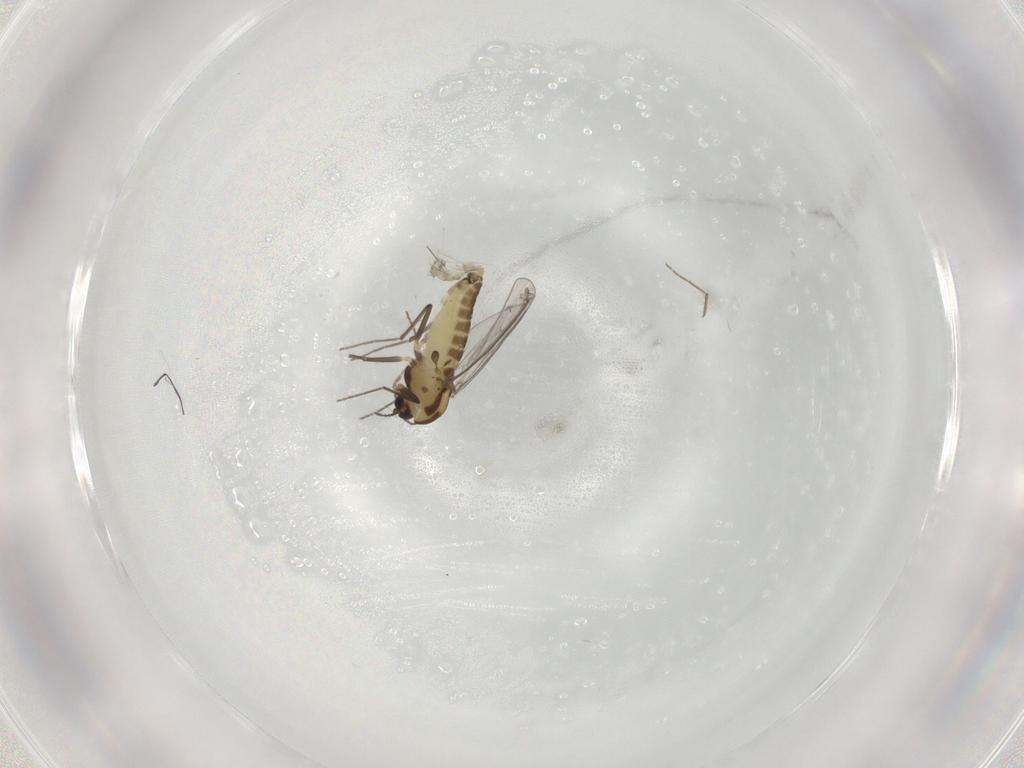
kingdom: Animalia
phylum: Arthropoda
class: Insecta
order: Diptera
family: Chironomidae
